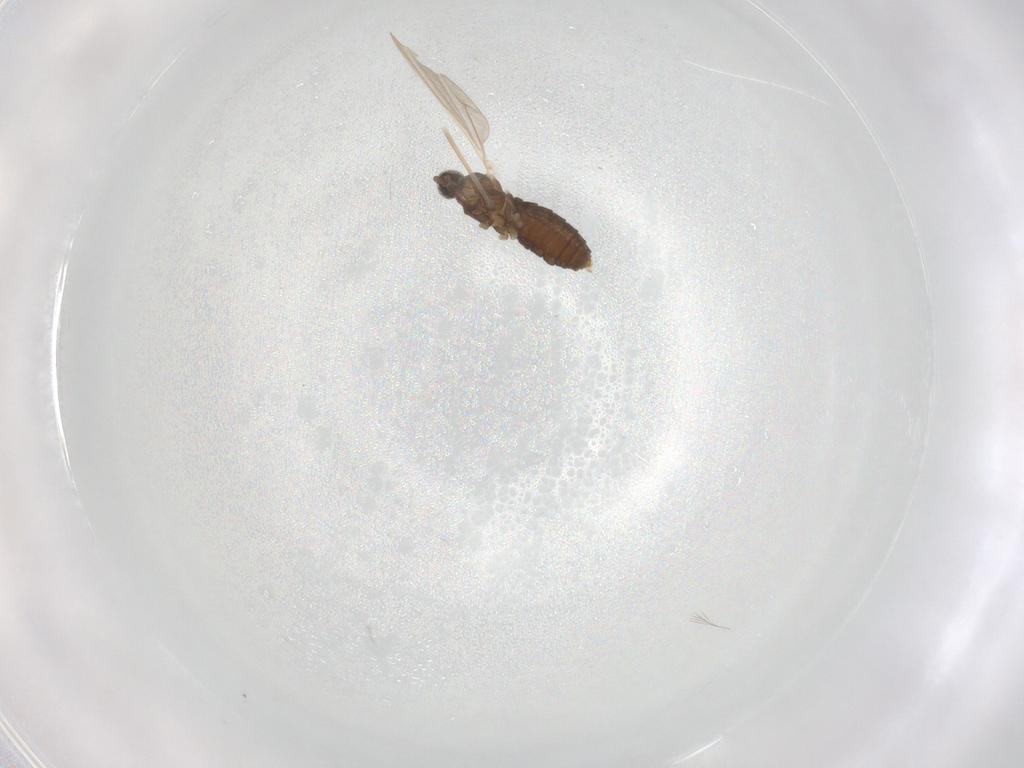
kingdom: Animalia
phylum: Arthropoda
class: Insecta
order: Diptera
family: Cecidomyiidae
